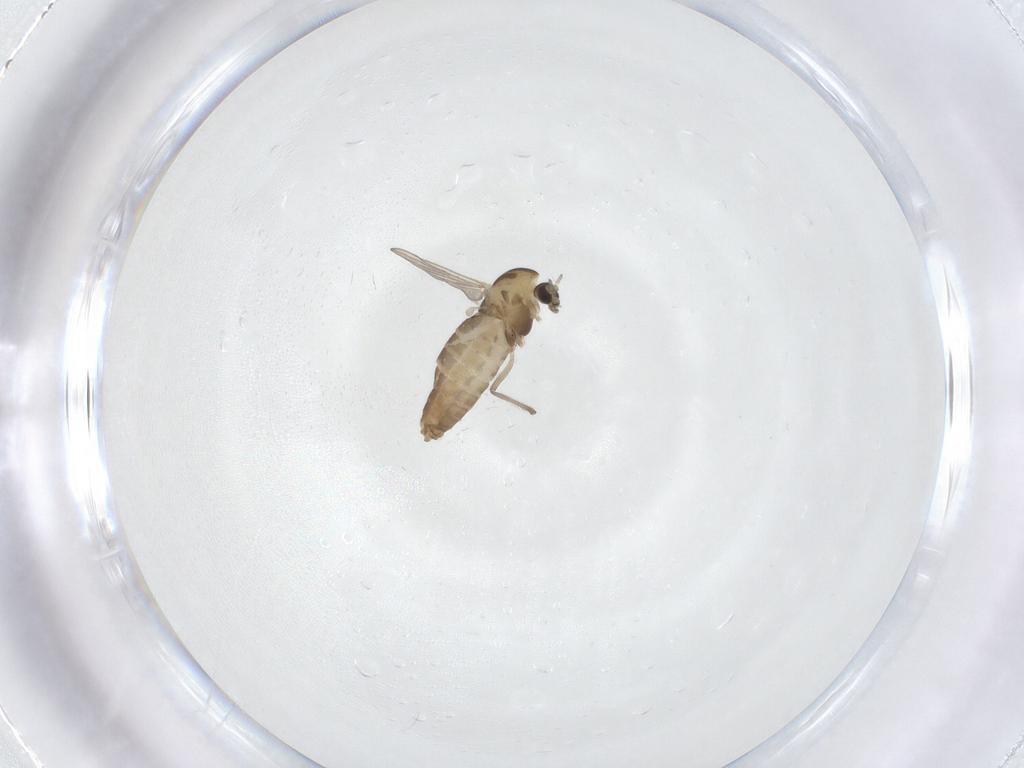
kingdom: Animalia
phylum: Arthropoda
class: Insecta
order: Diptera
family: Chironomidae
